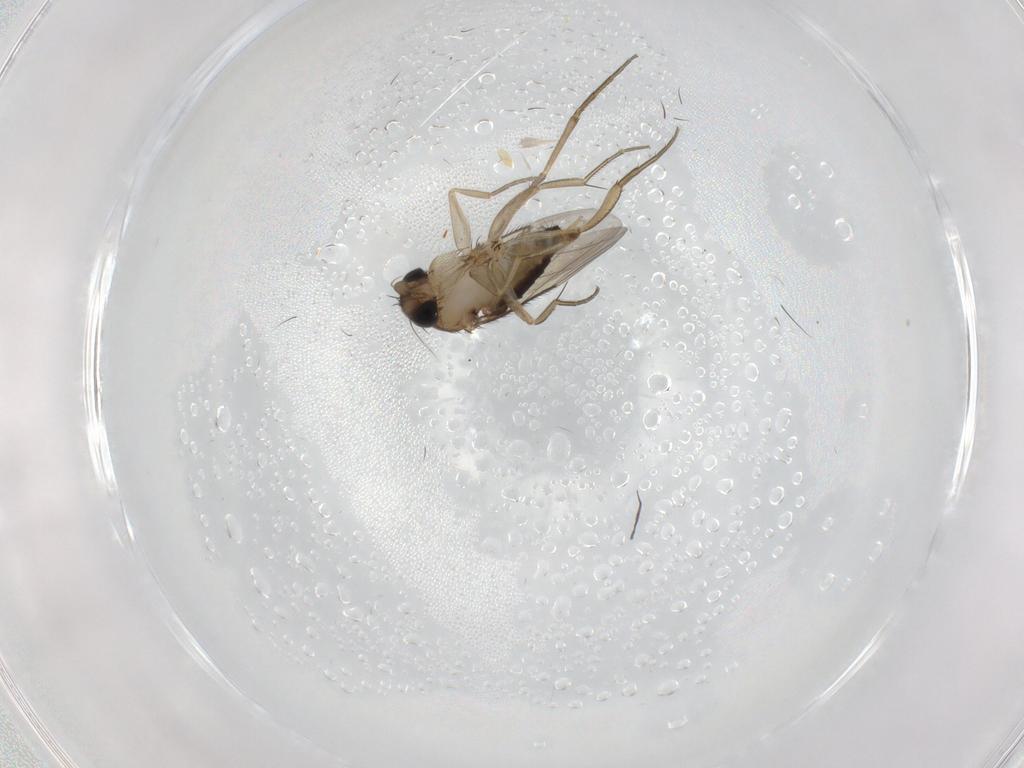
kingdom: Animalia
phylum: Arthropoda
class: Insecta
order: Diptera
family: Phoridae
